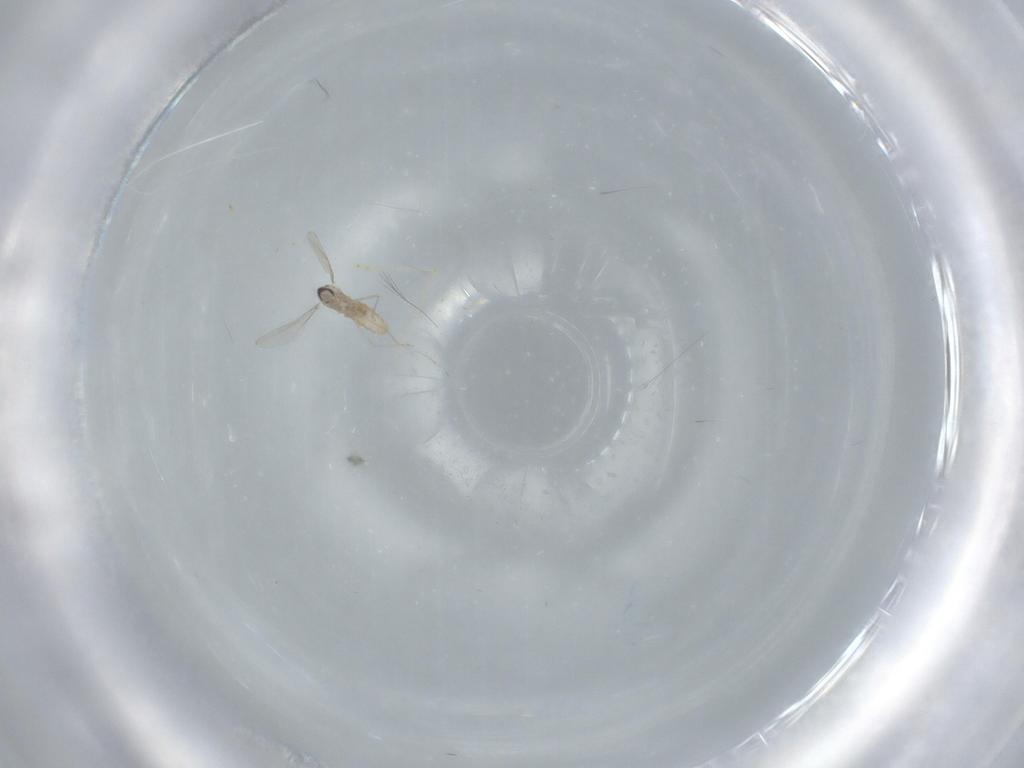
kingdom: Animalia
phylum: Arthropoda
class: Insecta
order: Diptera
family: Cecidomyiidae
